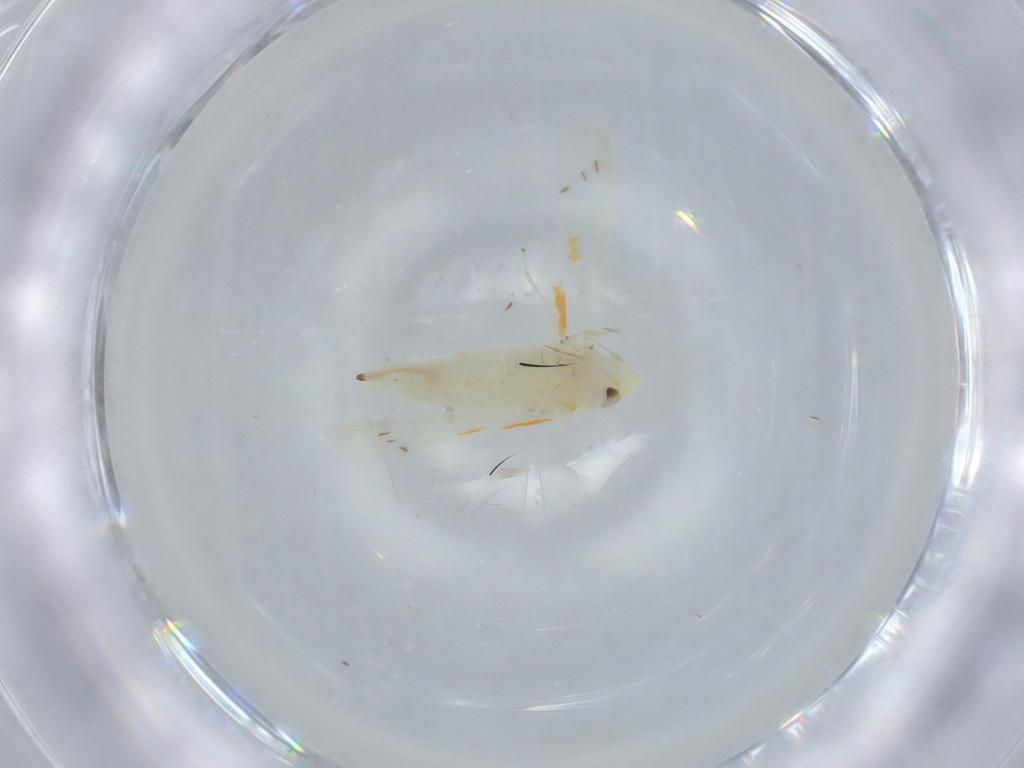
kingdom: Animalia
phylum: Arthropoda
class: Insecta
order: Hemiptera
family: Cicadellidae
